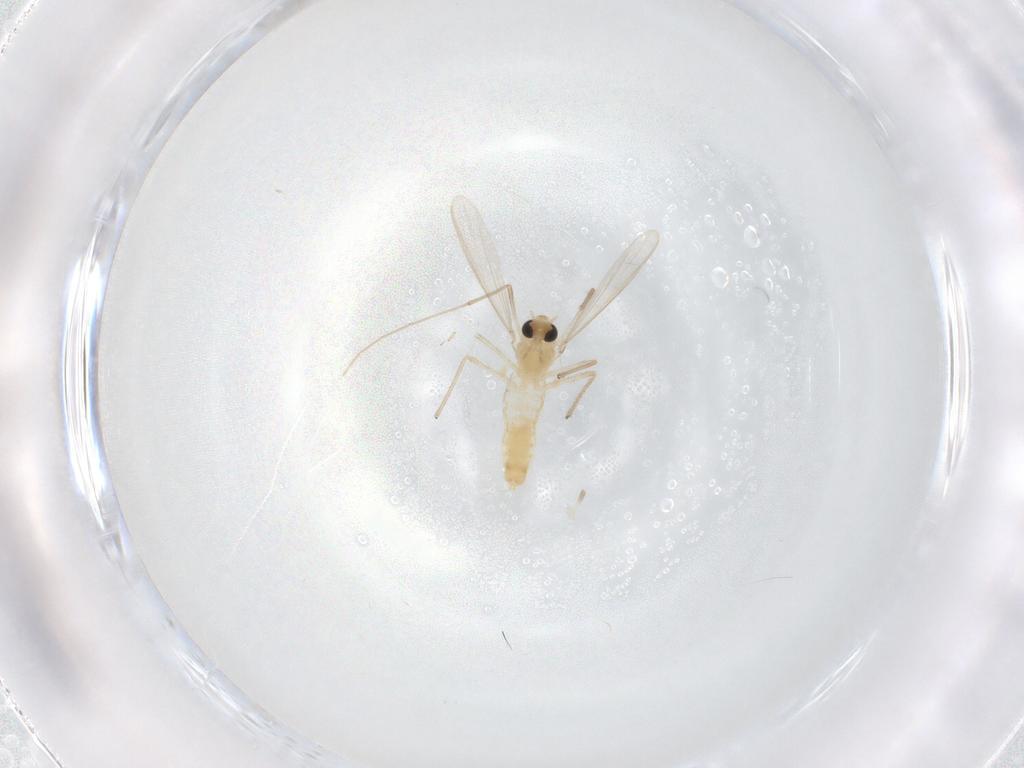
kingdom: Animalia
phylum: Arthropoda
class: Insecta
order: Diptera
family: Chironomidae
